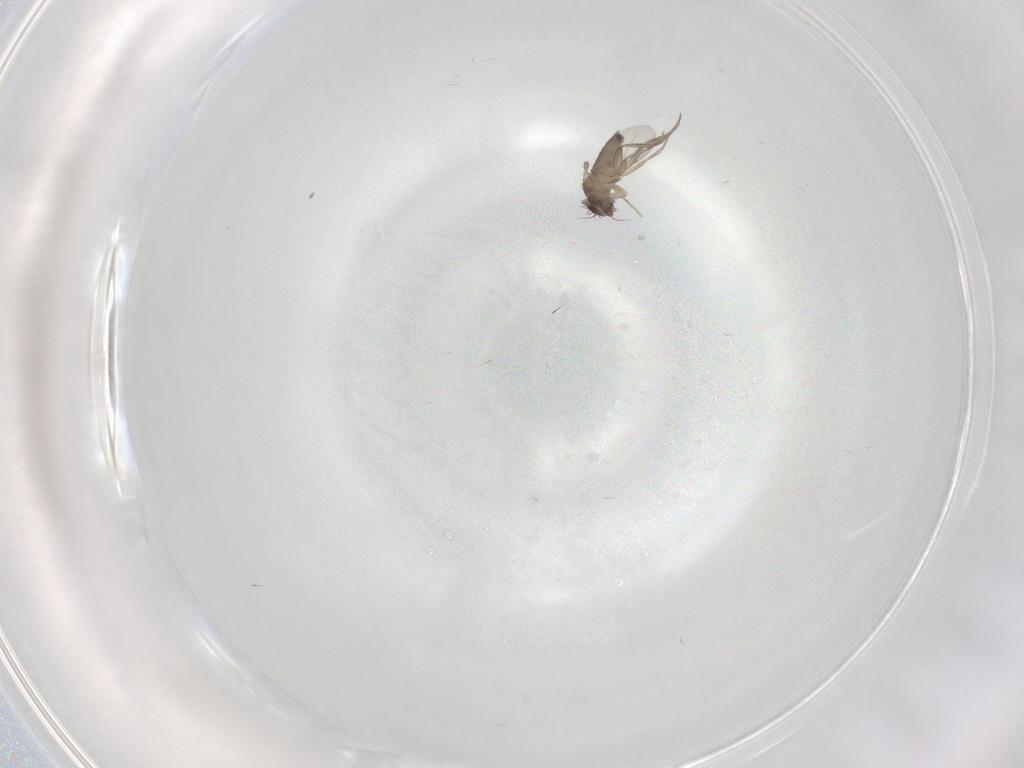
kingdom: Animalia
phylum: Arthropoda
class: Insecta
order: Diptera
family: Phoridae
